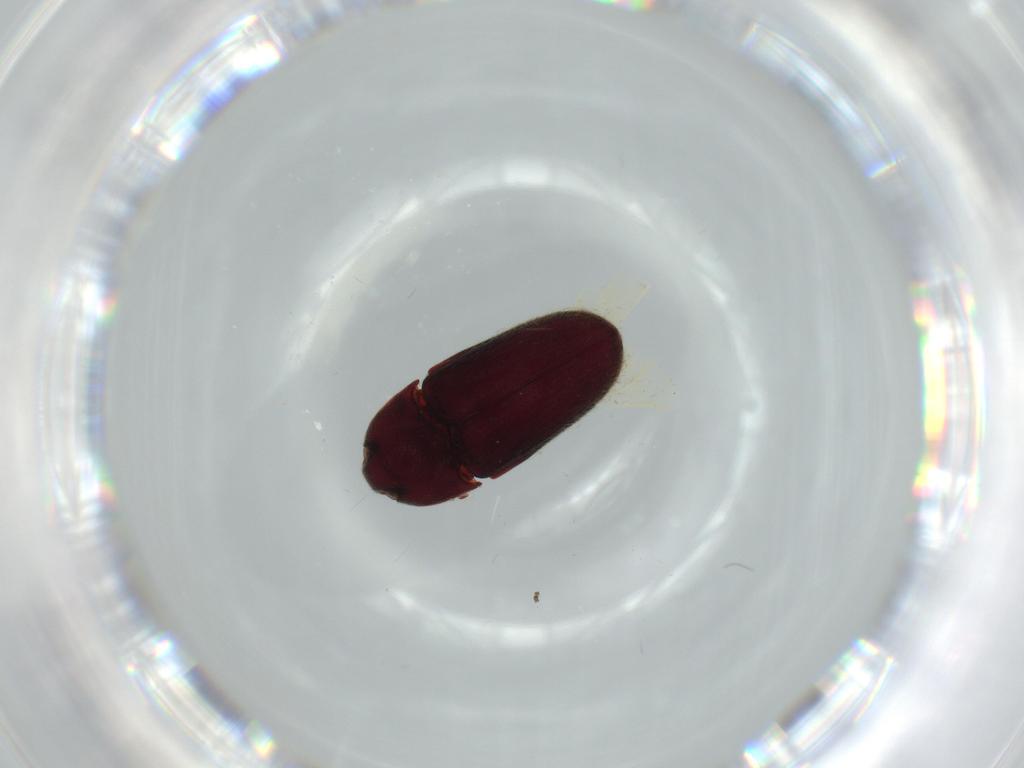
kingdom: Animalia
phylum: Arthropoda
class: Insecta
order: Coleoptera
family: Throscidae
